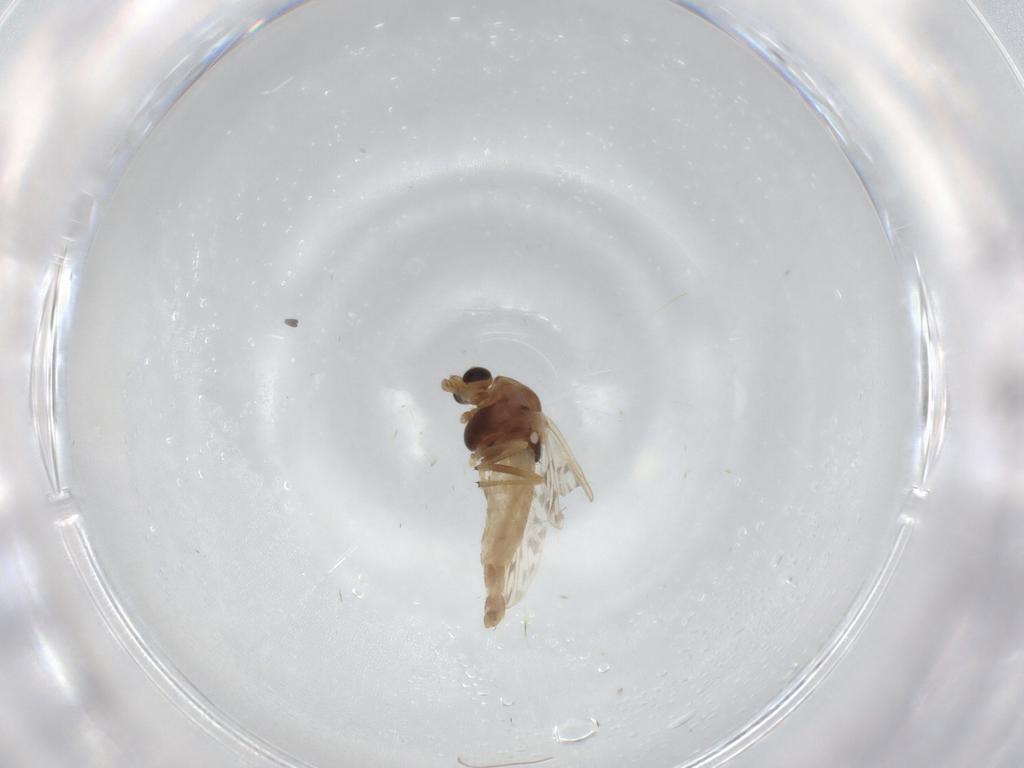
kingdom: Animalia
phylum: Arthropoda
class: Insecta
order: Diptera
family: Chironomidae
